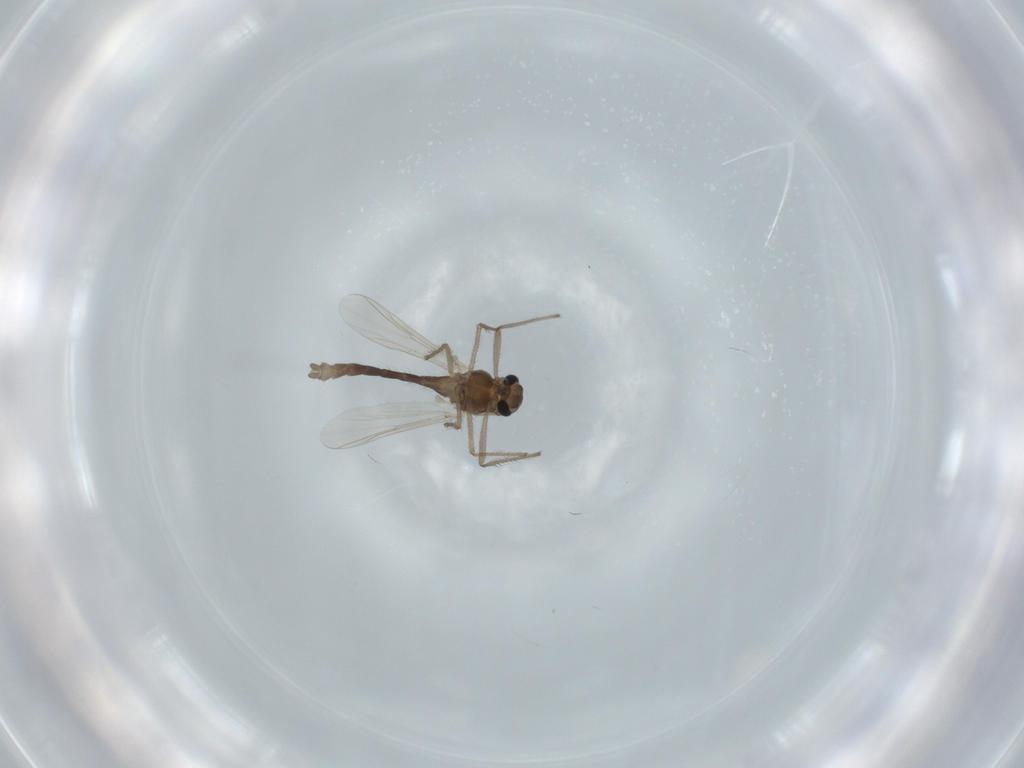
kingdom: Animalia
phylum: Arthropoda
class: Insecta
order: Diptera
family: Chironomidae
